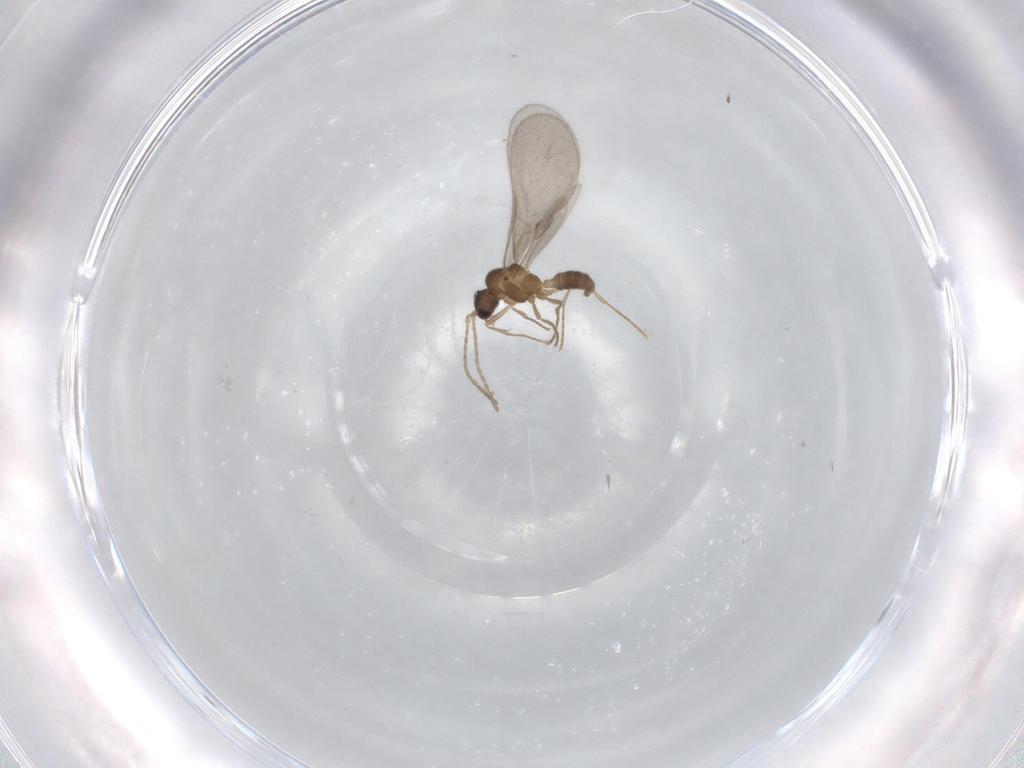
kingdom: Animalia
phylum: Arthropoda
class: Insecta
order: Hymenoptera
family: Formicidae
